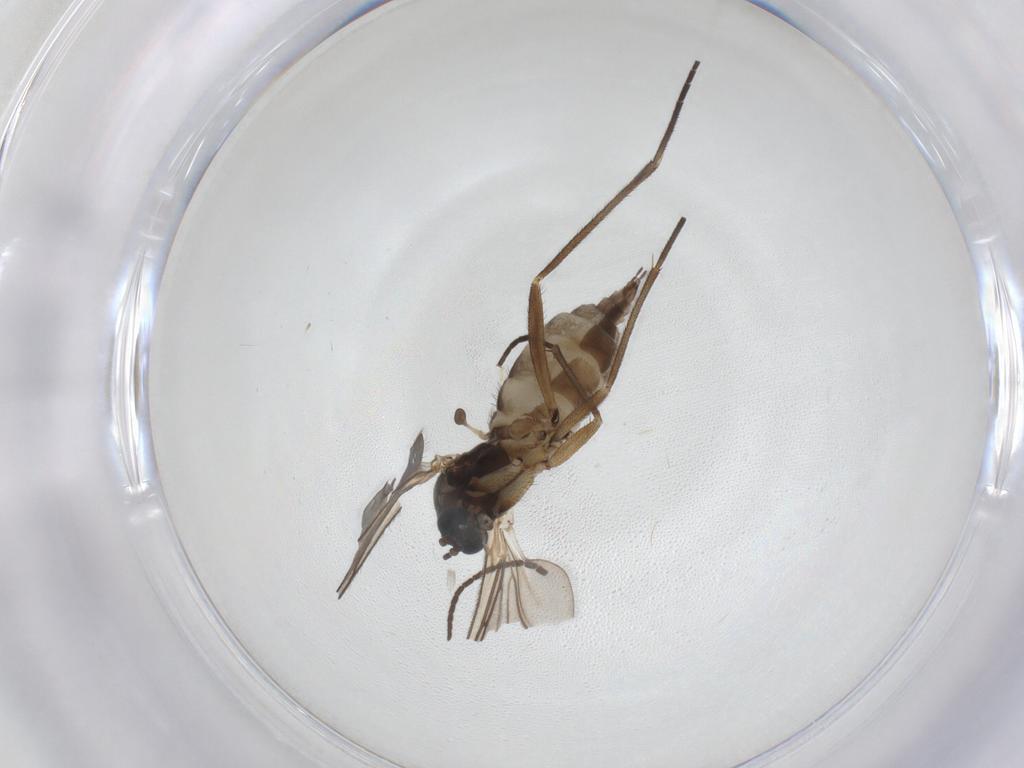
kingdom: Animalia
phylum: Arthropoda
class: Insecta
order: Diptera
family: Sciaridae
